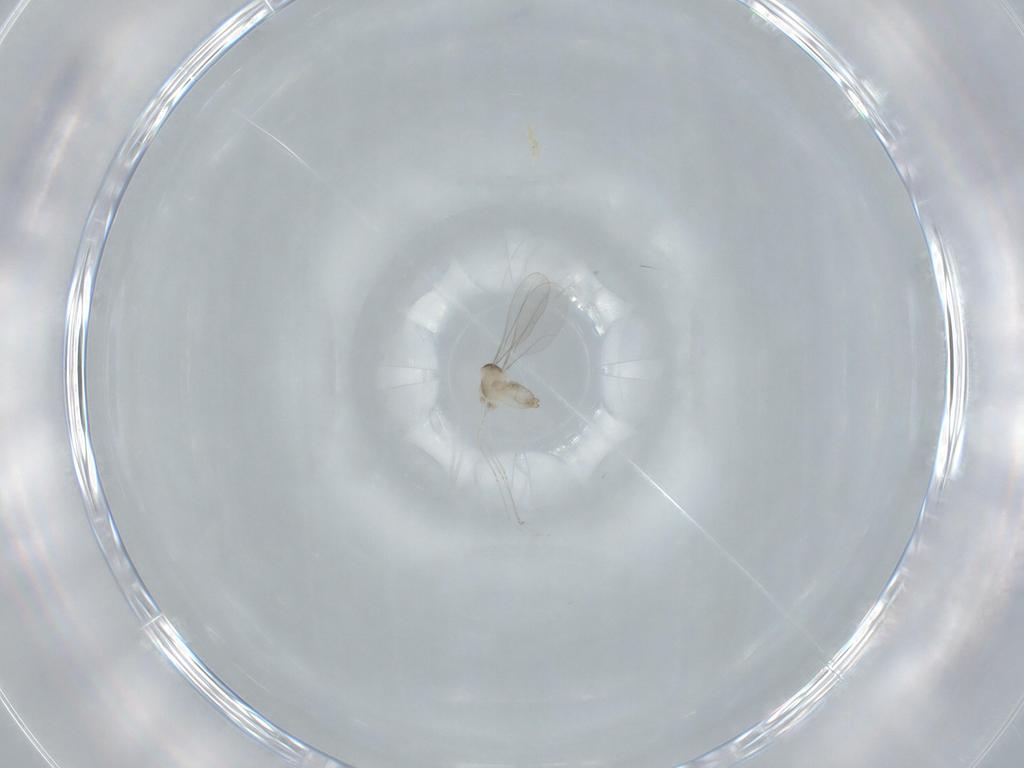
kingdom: Animalia
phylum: Arthropoda
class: Insecta
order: Diptera
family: Cecidomyiidae
